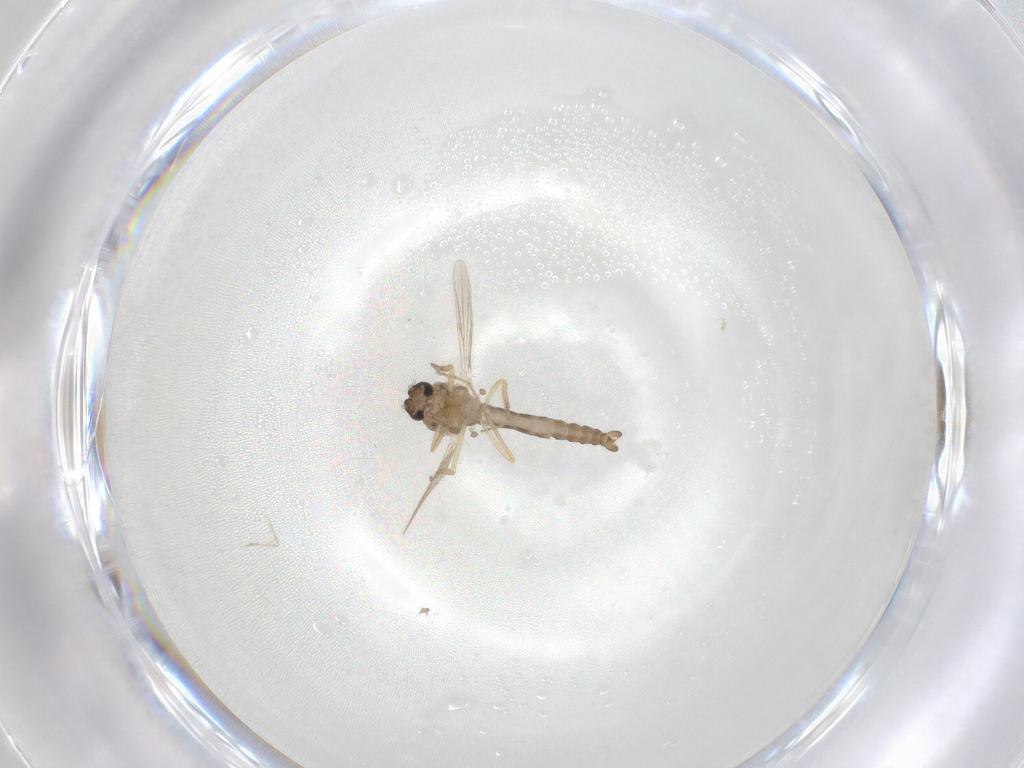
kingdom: Animalia
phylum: Arthropoda
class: Insecta
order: Diptera
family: Ceratopogonidae
